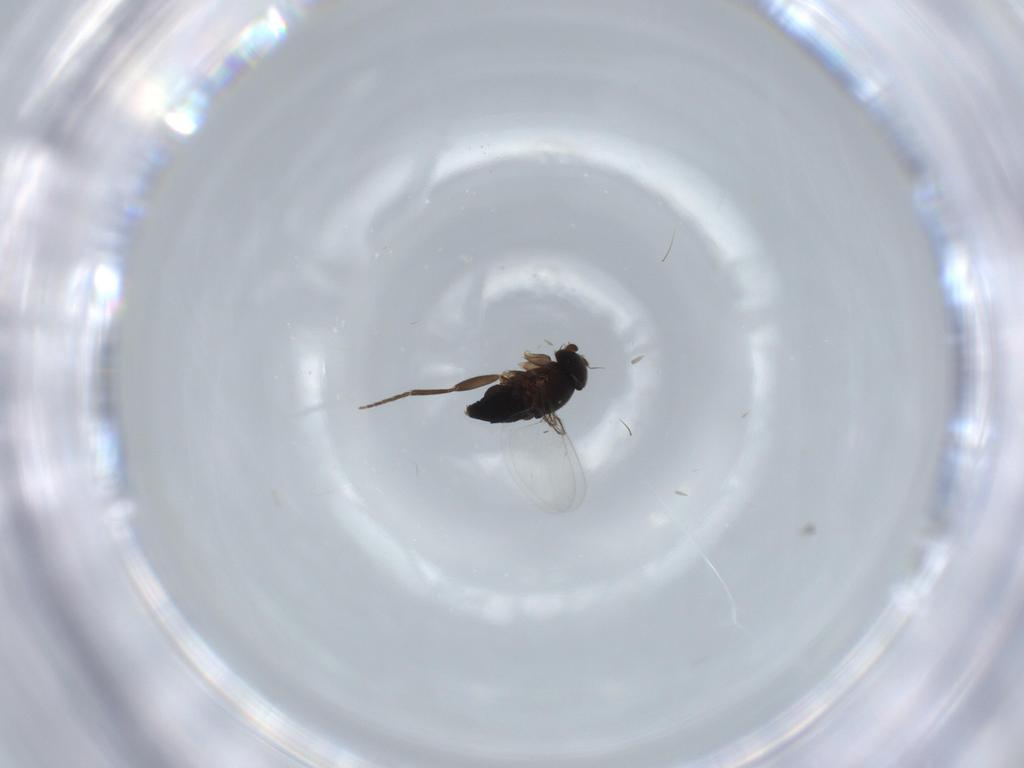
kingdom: Animalia
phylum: Arthropoda
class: Insecta
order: Diptera
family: Phoridae
